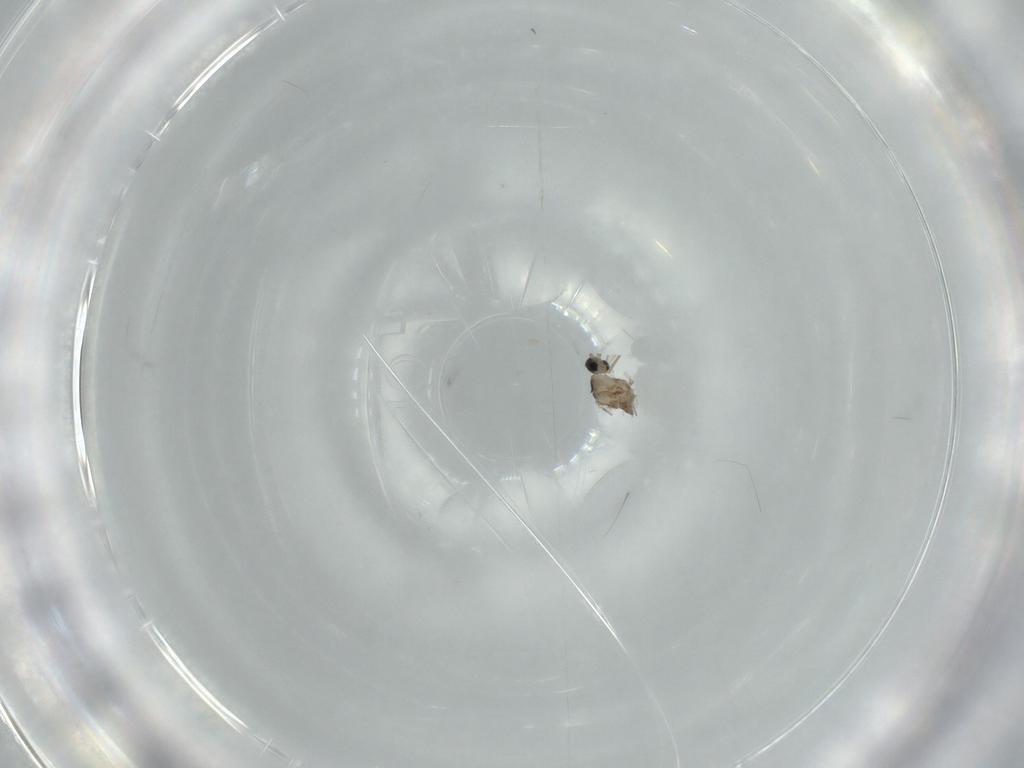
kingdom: Animalia
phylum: Arthropoda
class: Insecta
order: Diptera
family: Cecidomyiidae
